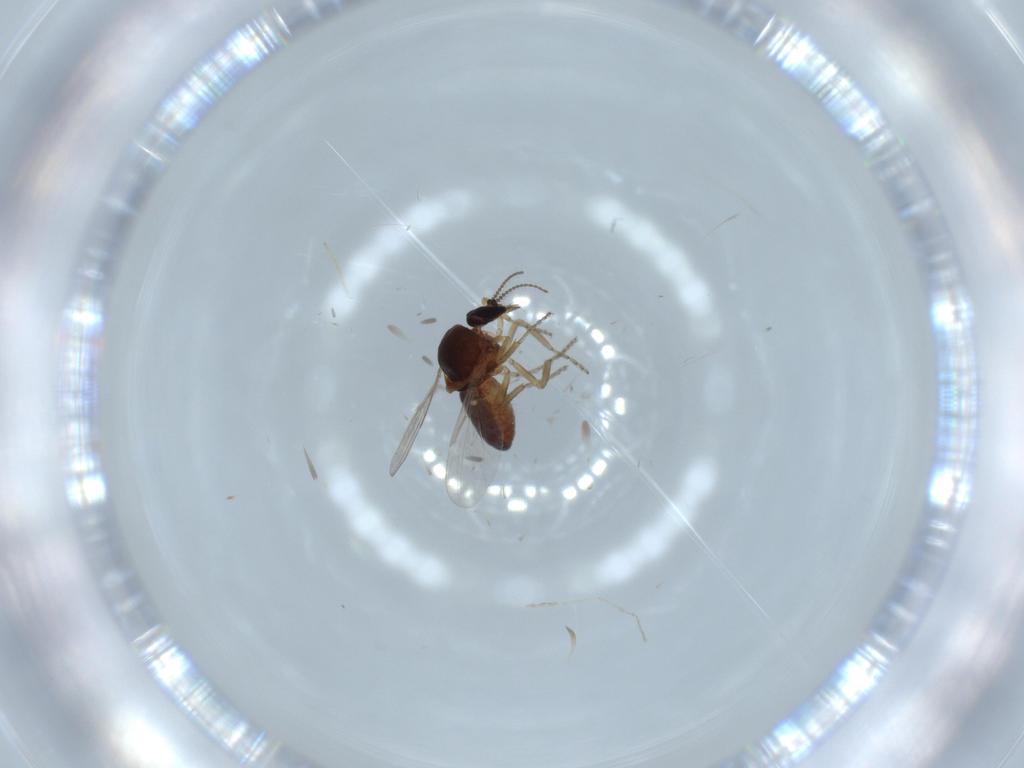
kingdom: Animalia
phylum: Arthropoda
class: Insecta
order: Diptera
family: Ceratopogonidae
